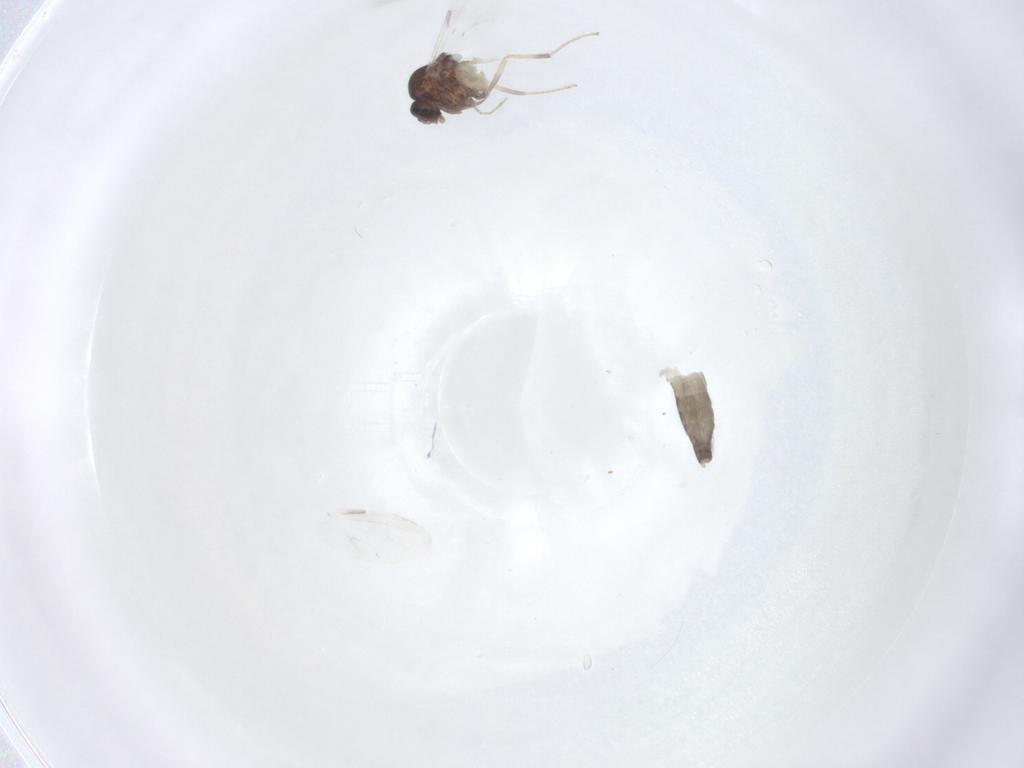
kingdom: Animalia
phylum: Arthropoda
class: Insecta
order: Diptera
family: Ceratopogonidae
